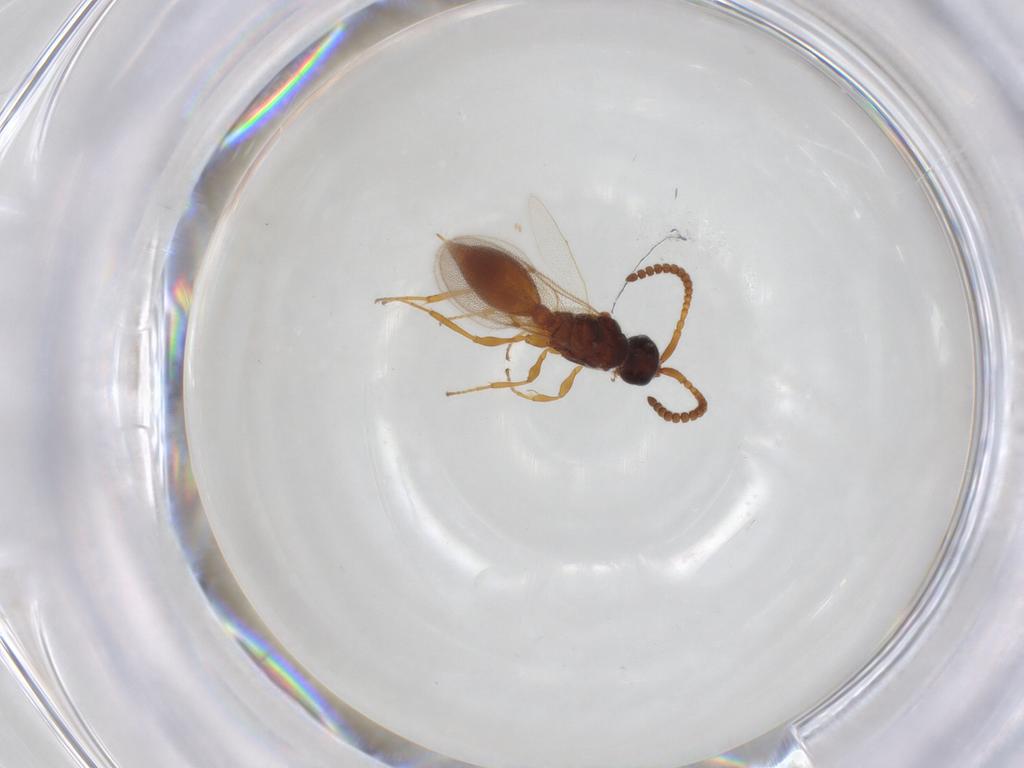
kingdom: Animalia
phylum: Arthropoda
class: Insecta
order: Hymenoptera
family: Diapriidae
